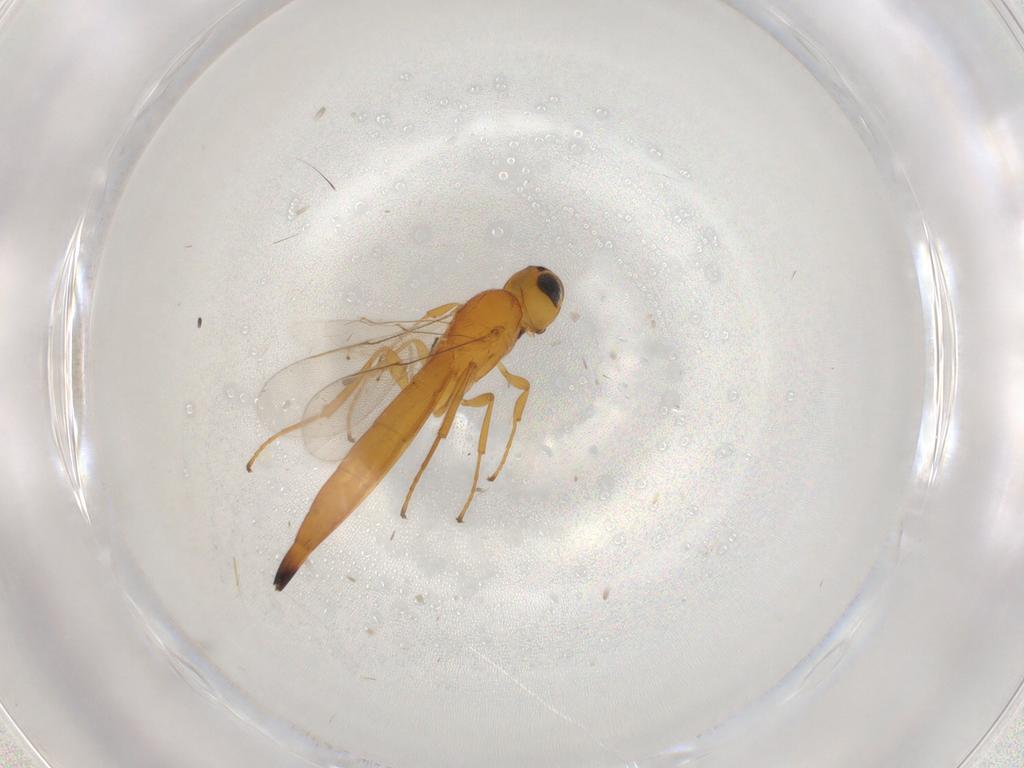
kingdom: Animalia
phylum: Arthropoda
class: Insecta
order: Hymenoptera
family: Scelionidae
